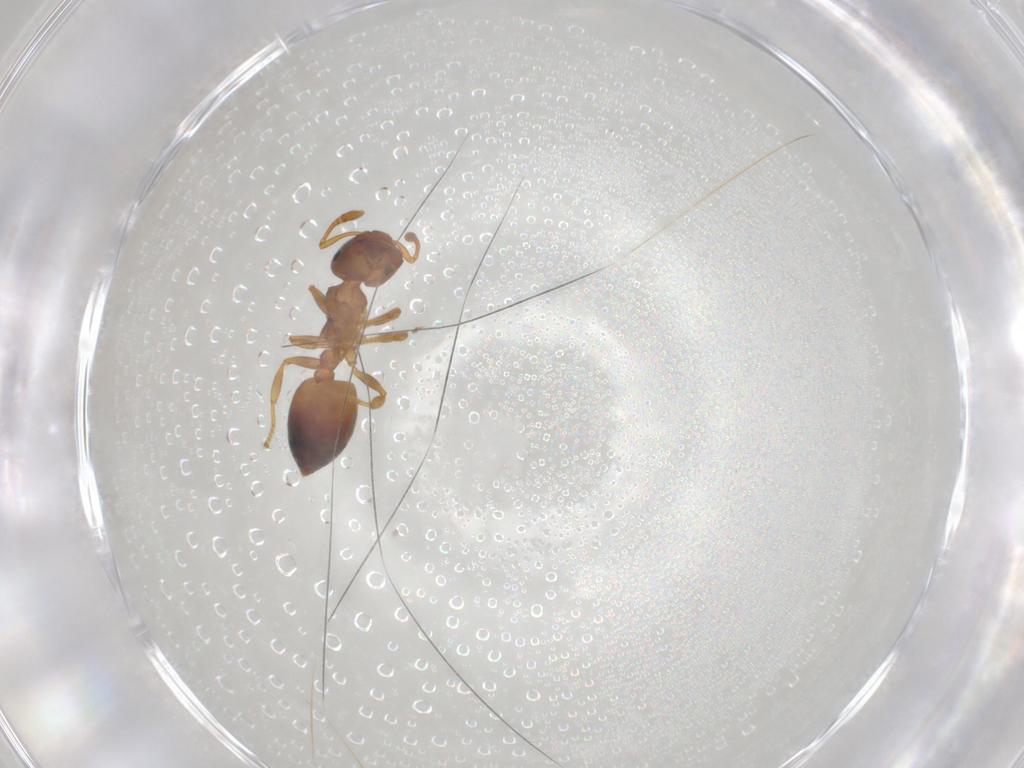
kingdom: Animalia
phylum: Arthropoda
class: Insecta
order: Hymenoptera
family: Formicidae
